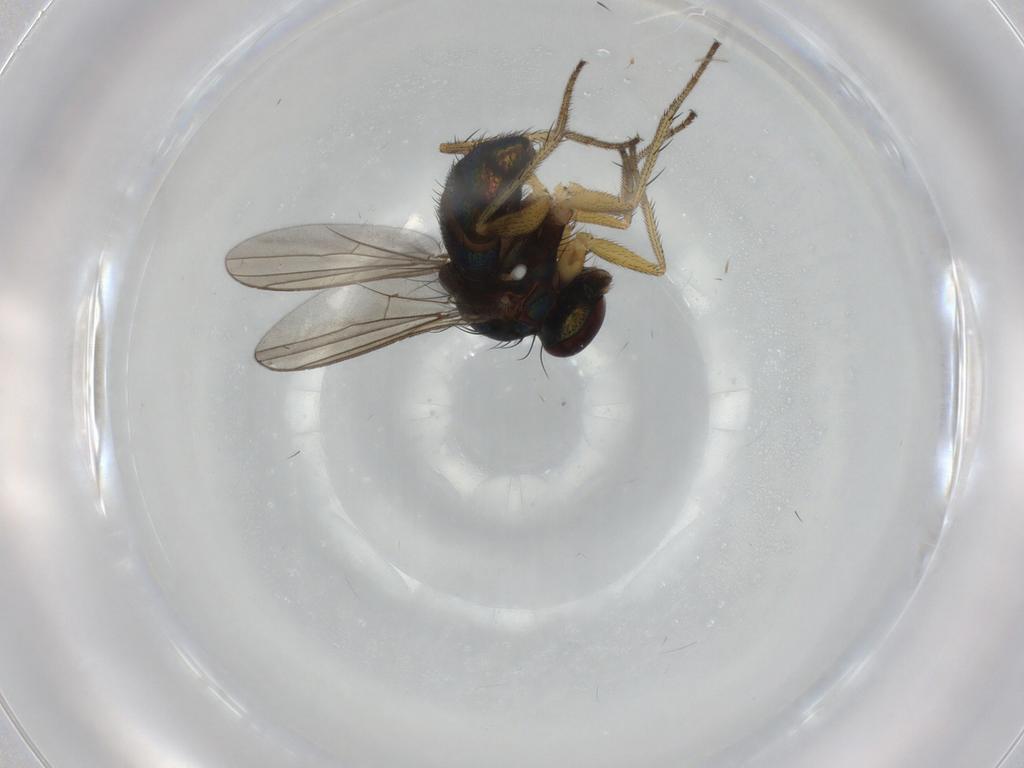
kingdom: Animalia
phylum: Arthropoda
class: Insecta
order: Diptera
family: Dolichopodidae
